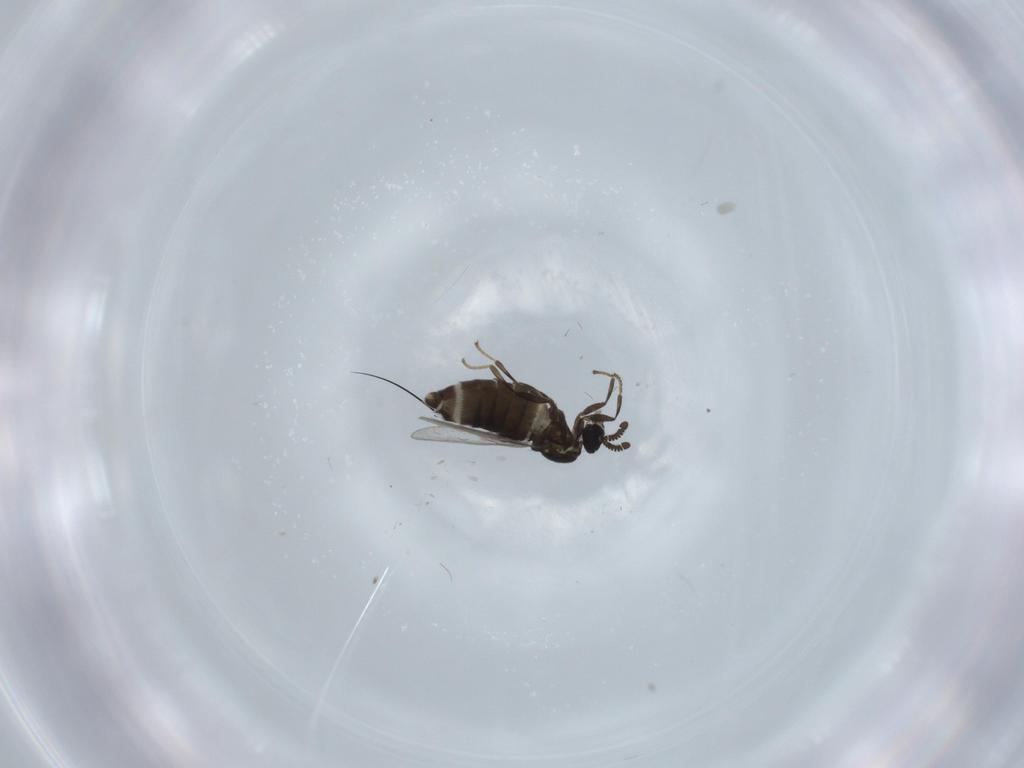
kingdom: Animalia
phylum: Arthropoda
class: Insecta
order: Diptera
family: Scatopsidae
